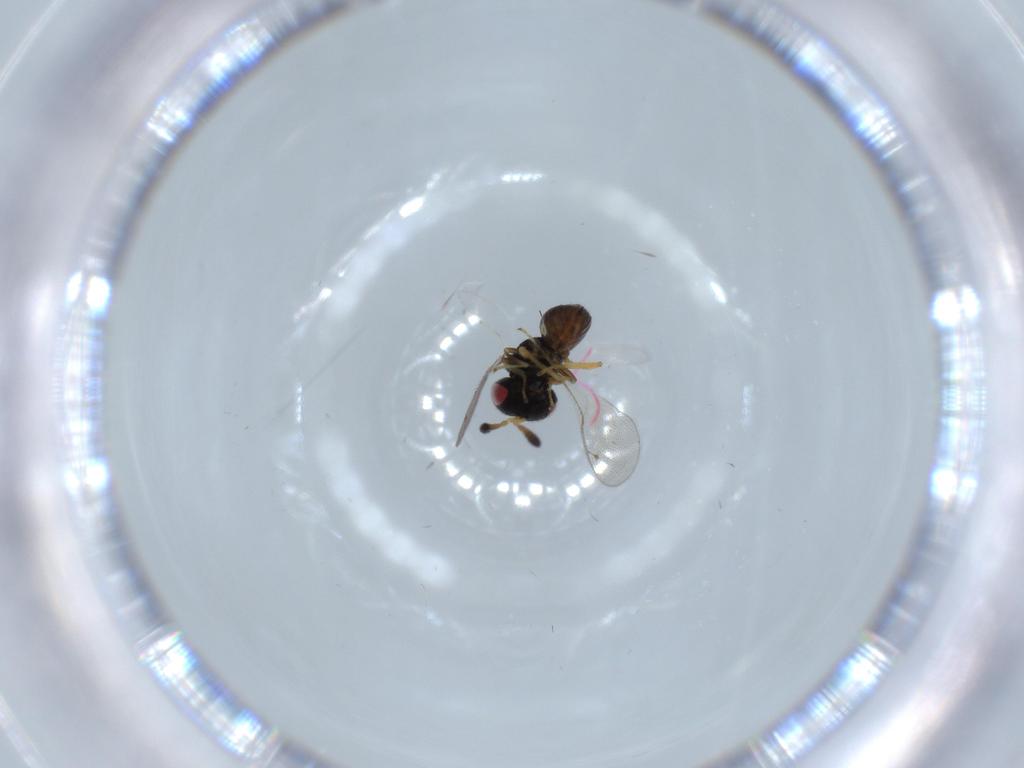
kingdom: Animalia
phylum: Arthropoda
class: Insecta
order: Hymenoptera
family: Pteromalidae
